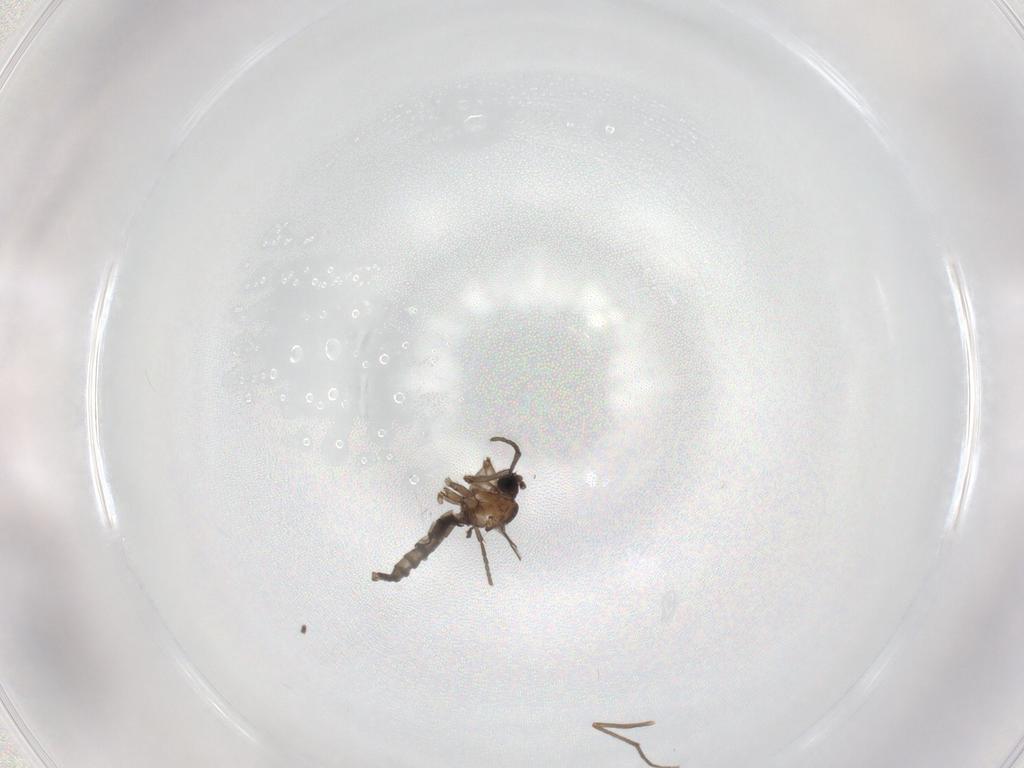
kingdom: Animalia
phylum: Arthropoda
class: Insecta
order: Diptera
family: Sciaridae
